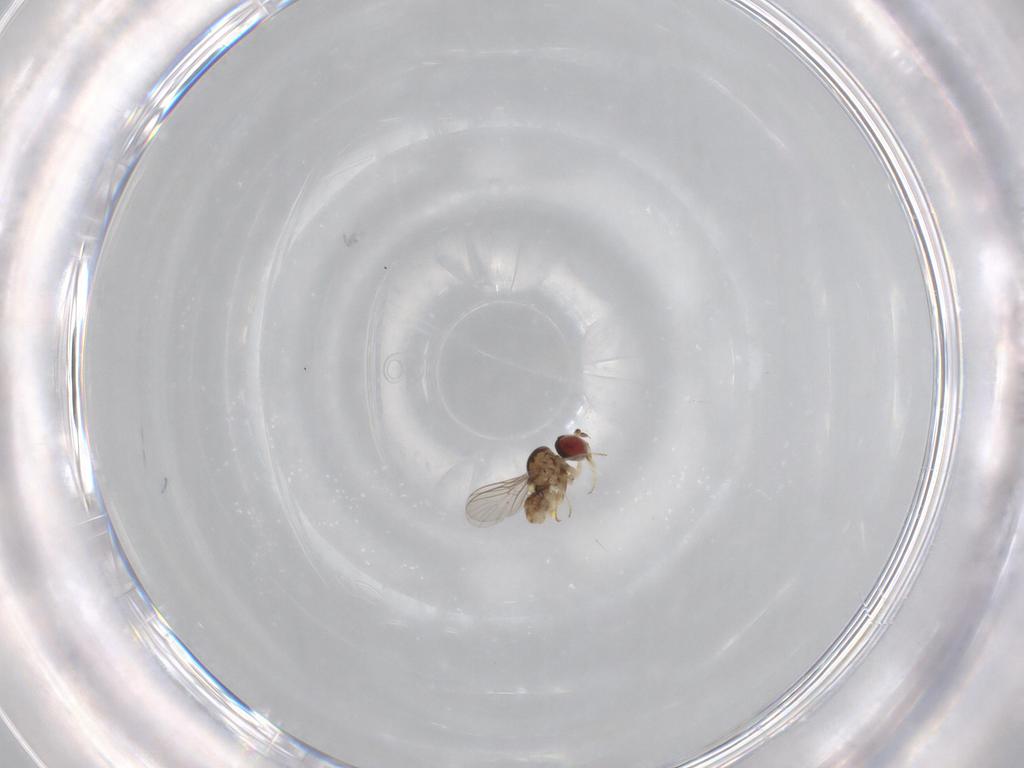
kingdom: Animalia
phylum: Arthropoda
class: Insecta
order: Diptera
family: Bombyliidae
